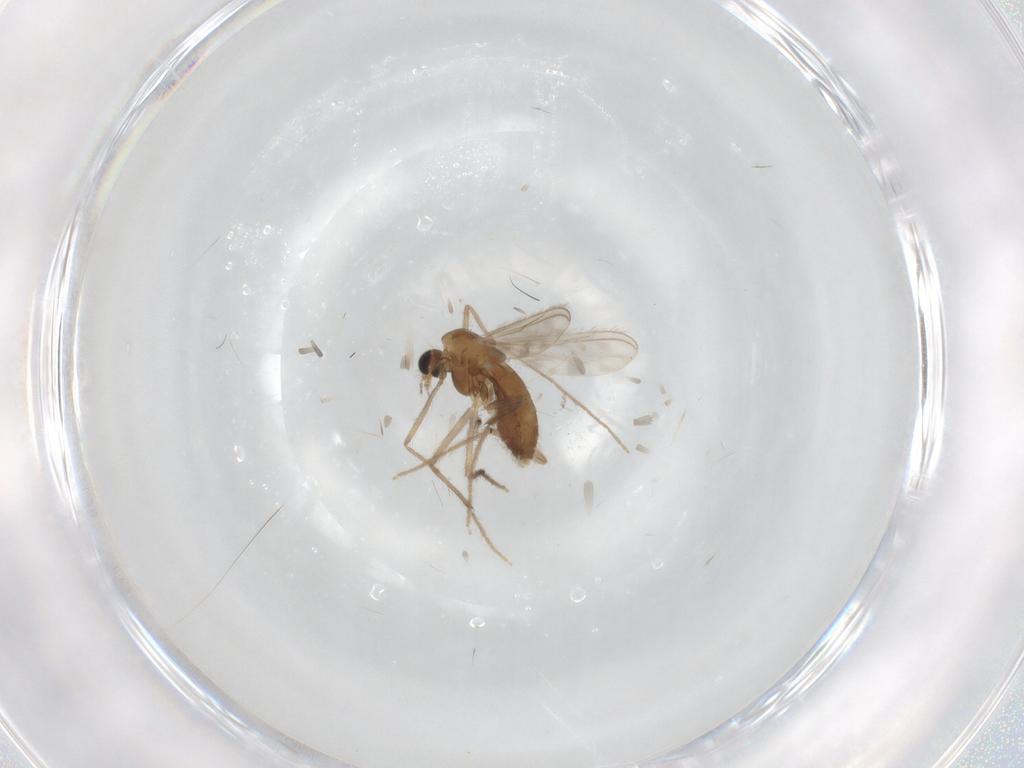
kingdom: Animalia
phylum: Arthropoda
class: Insecta
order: Diptera
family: Chironomidae
